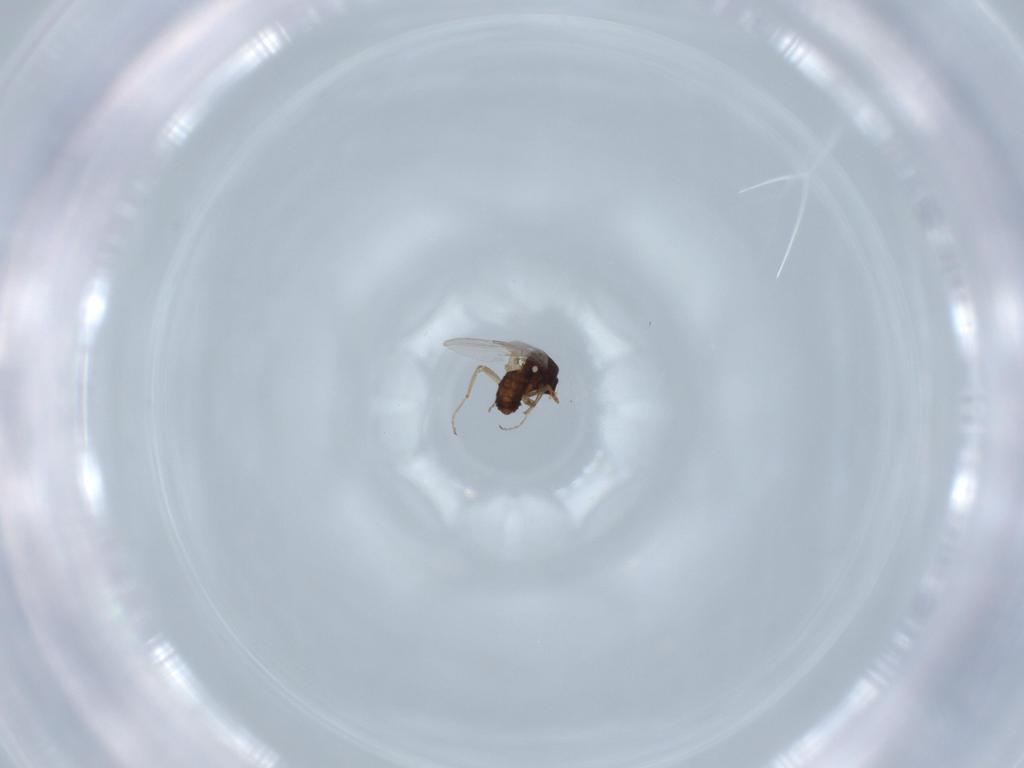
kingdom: Animalia
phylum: Arthropoda
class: Insecta
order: Diptera
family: Ceratopogonidae
